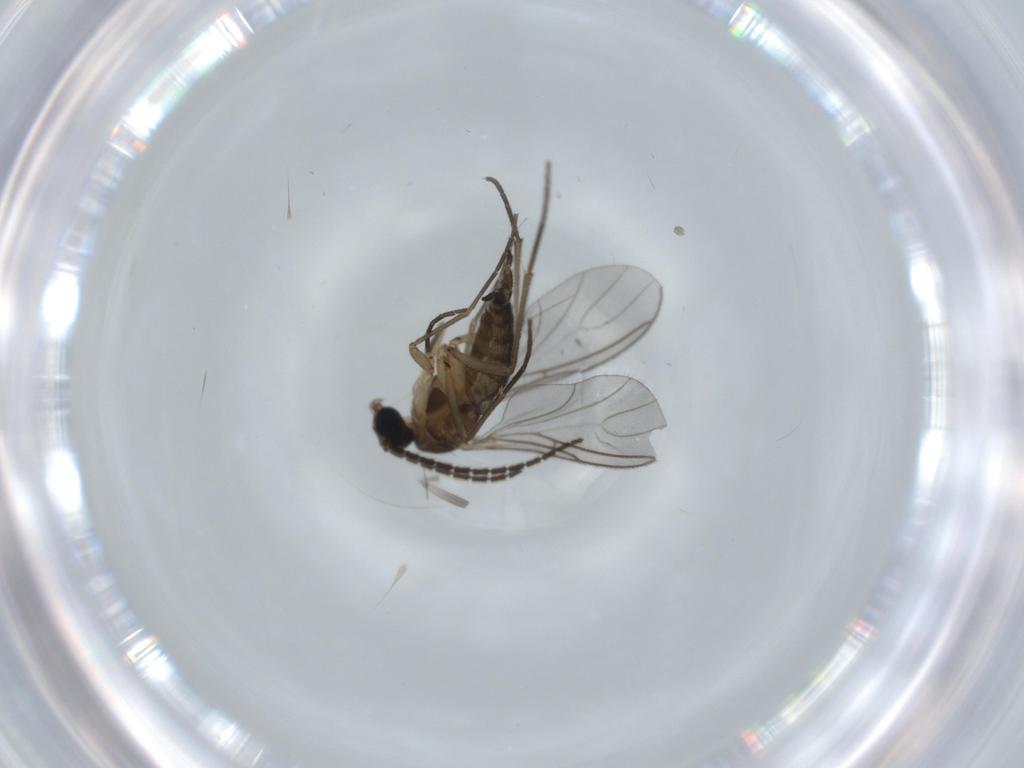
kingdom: Animalia
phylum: Arthropoda
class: Insecta
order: Diptera
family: Sciaridae
